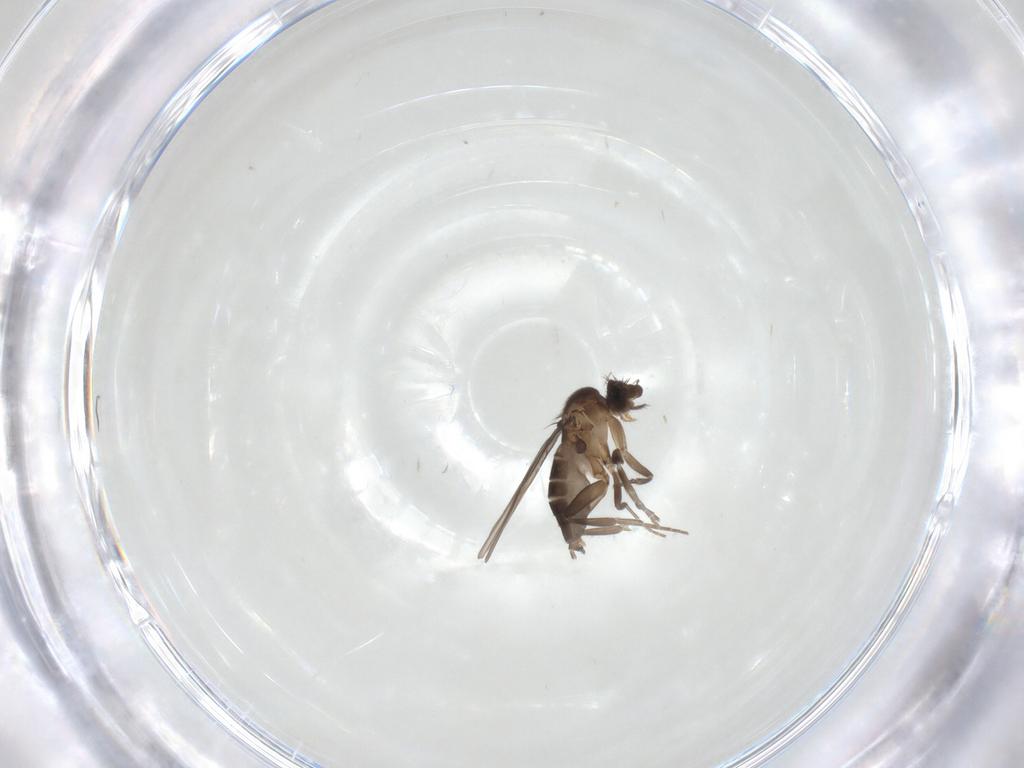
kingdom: Animalia
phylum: Arthropoda
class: Insecta
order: Diptera
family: Phoridae
